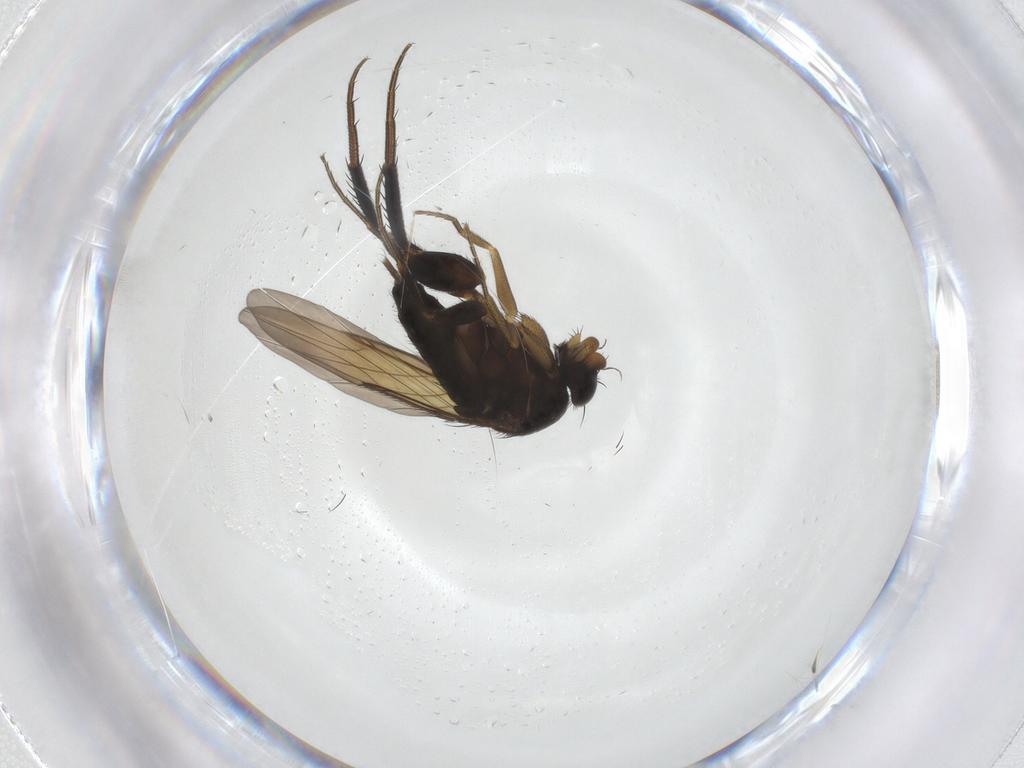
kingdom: Animalia
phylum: Arthropoda
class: Insecta
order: Diptera
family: Phoridae
